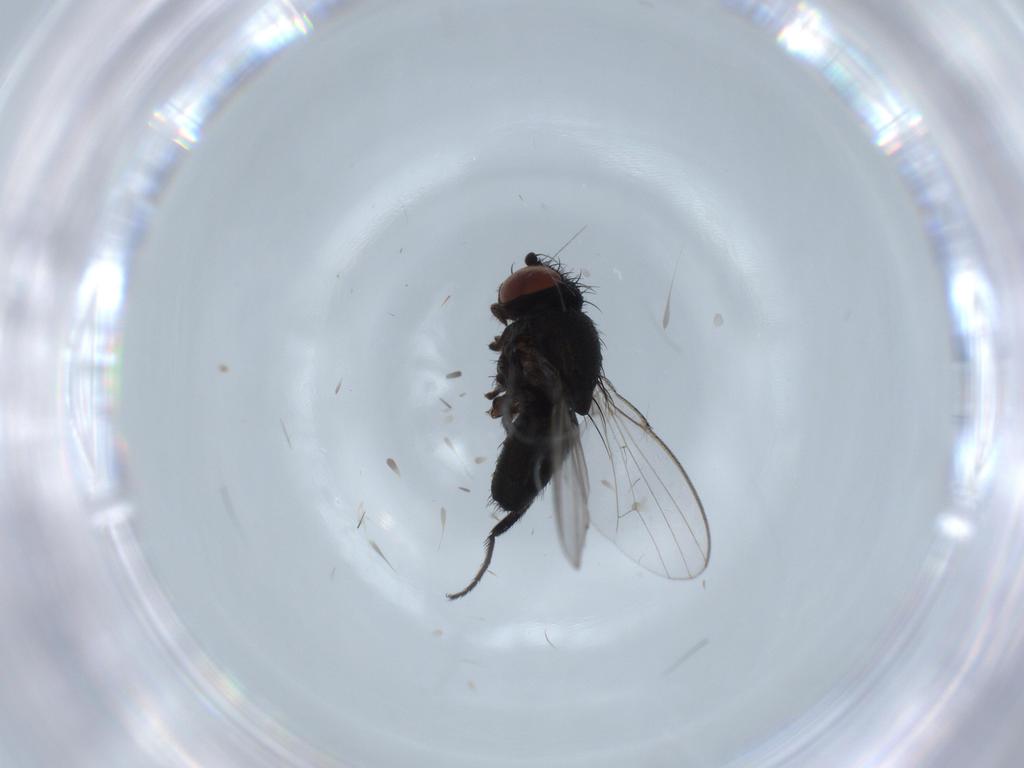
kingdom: Animalia
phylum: Arthropoda
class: Insecta
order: Diptera
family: Milichiidae
